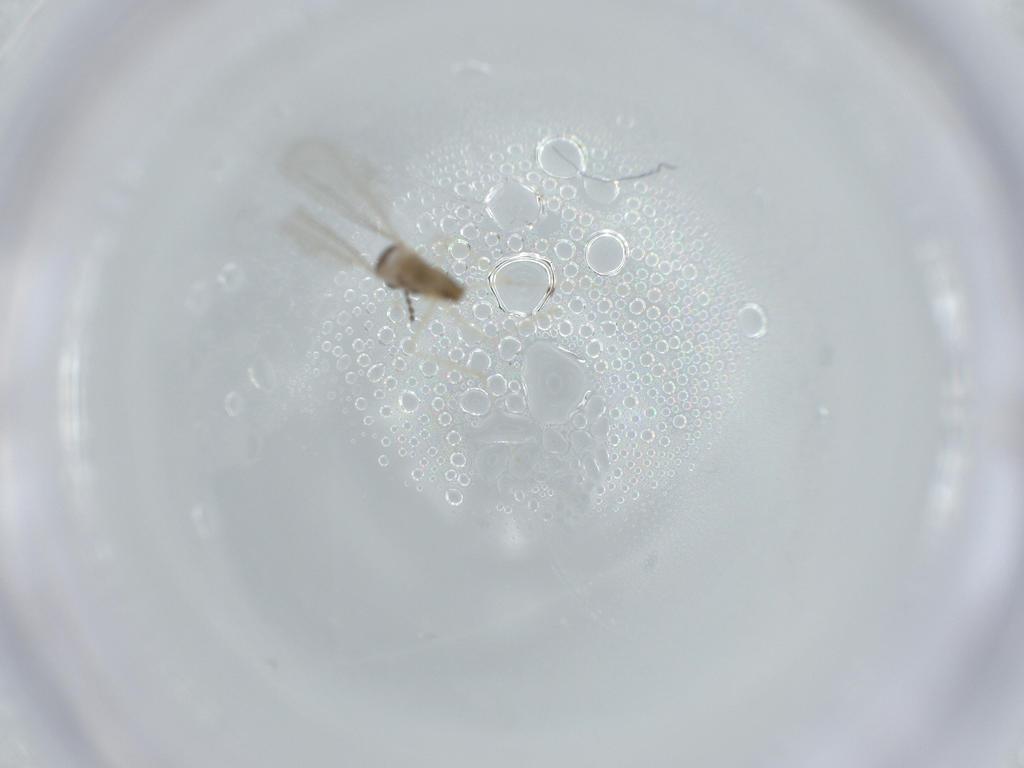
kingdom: Animalia
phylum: Arthropoda
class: Insecta
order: Diptera
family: Cecidomyiidae
